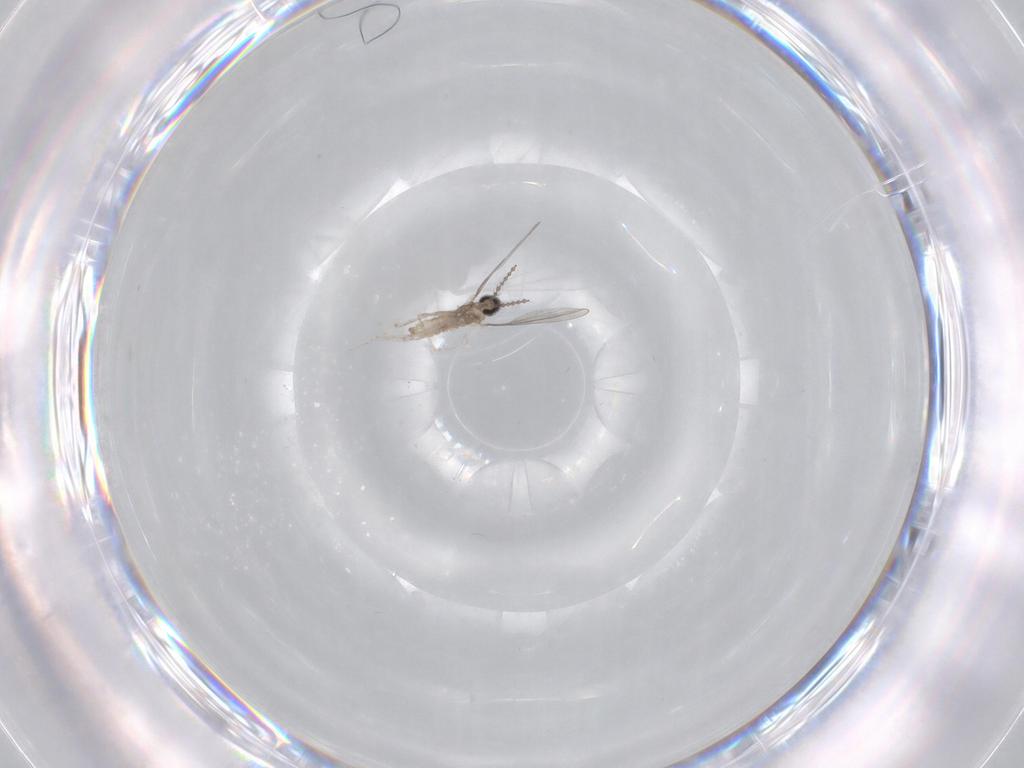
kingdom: Animalia
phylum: Arthropoda
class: Insecta
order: Diptera
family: Cecidomyiidae
